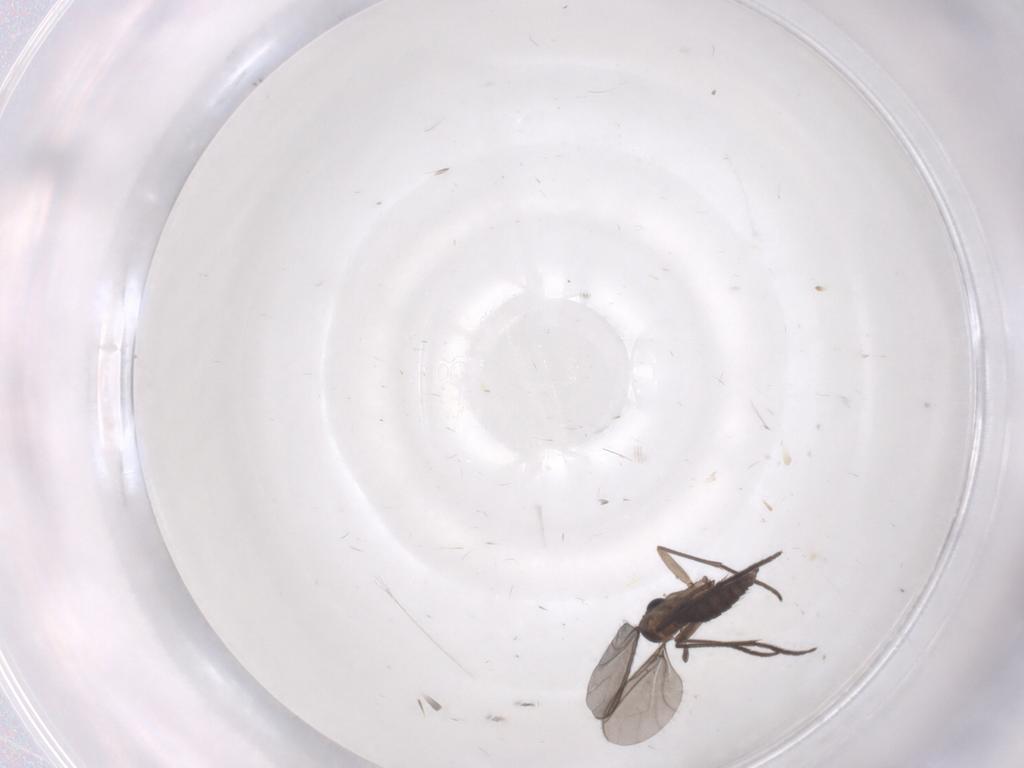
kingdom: Animalia
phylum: Arthropoda
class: Insecta
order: Diptera
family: Sciaridae
